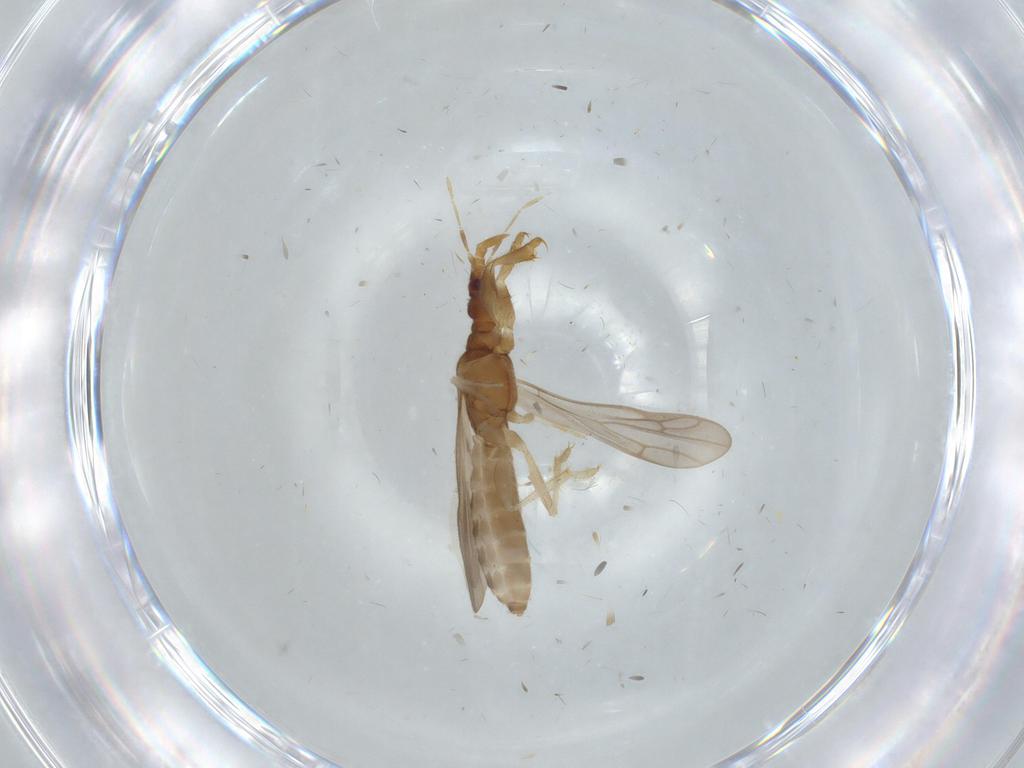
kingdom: Animalia
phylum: Arthropoda
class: Insecta
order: Hemiptera
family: Enicocephalidae
